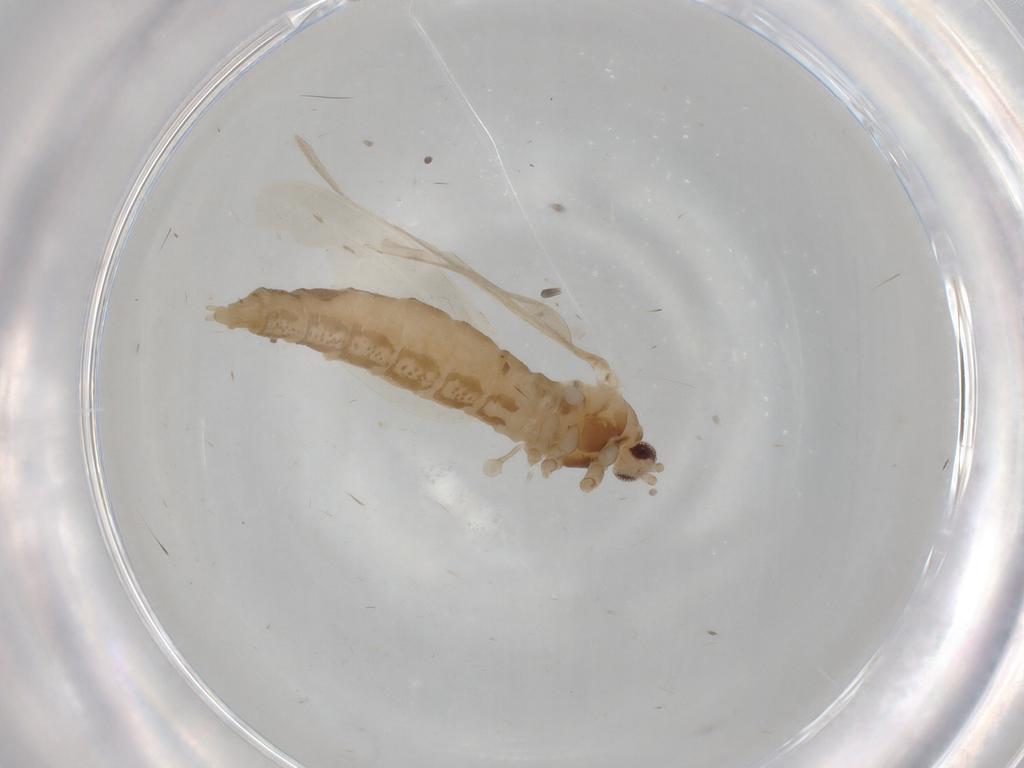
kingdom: Animalia
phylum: Arthropoda
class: Insecta
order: Diptera
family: Cecidomyiidae
